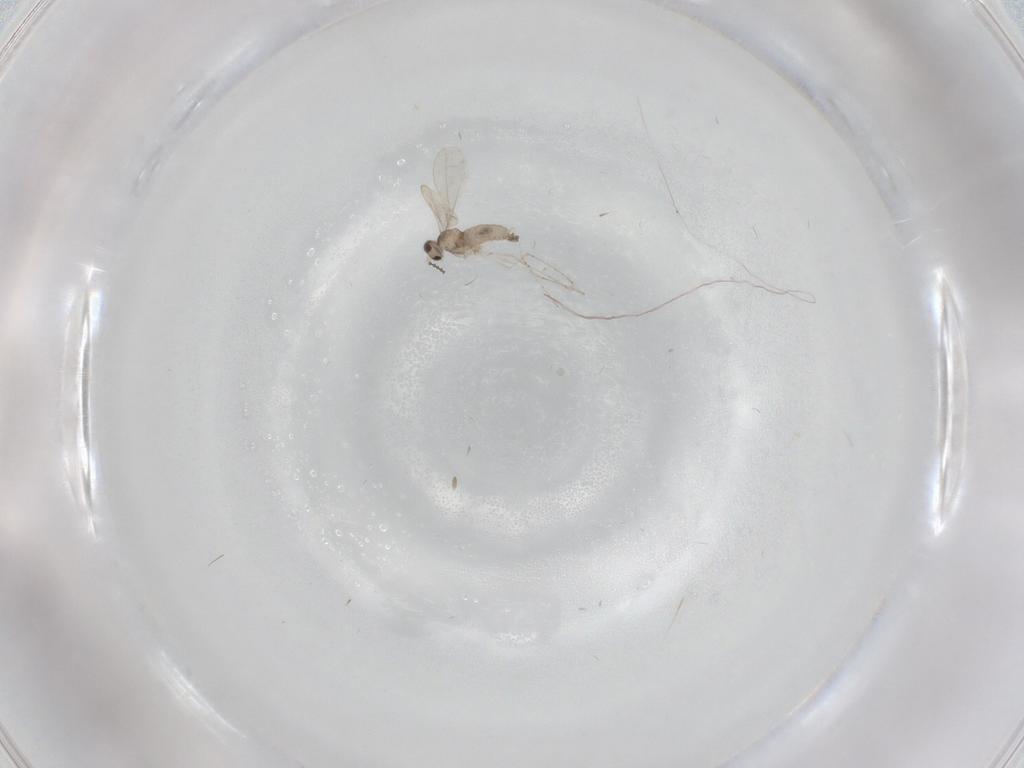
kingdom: Animalia
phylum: Arthropoda
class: Insecta
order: Diptera
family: Cecidomyiidae
